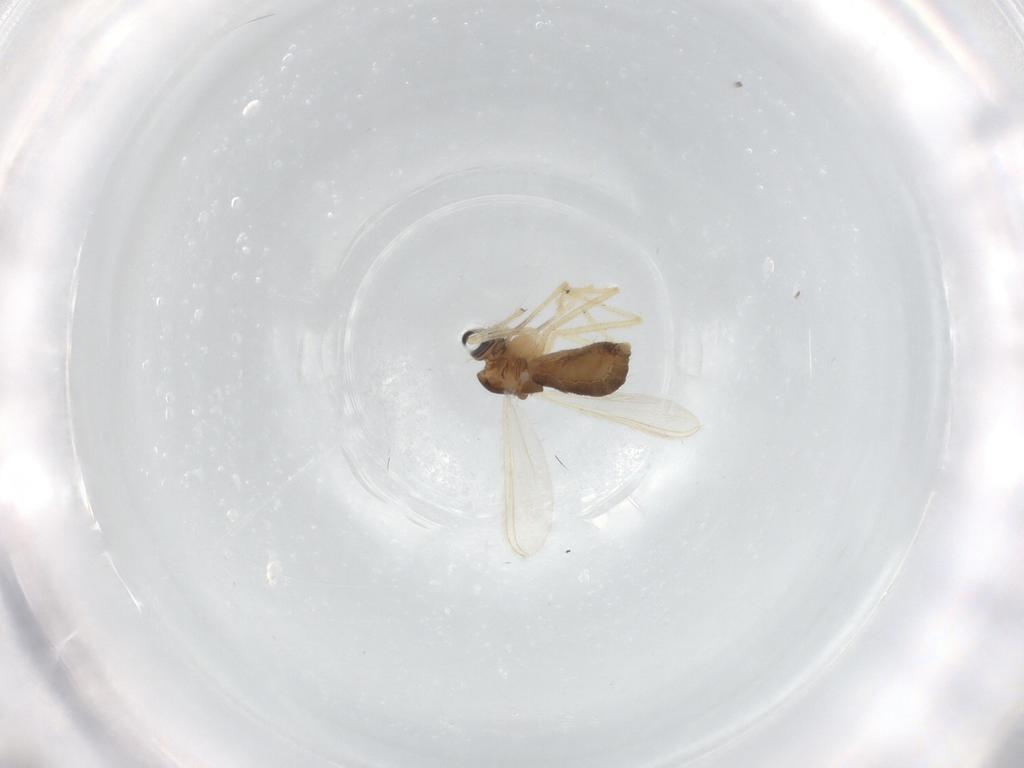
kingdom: Animalia
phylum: Arthropoda
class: Insecta
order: Diptera
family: Chironomidae
